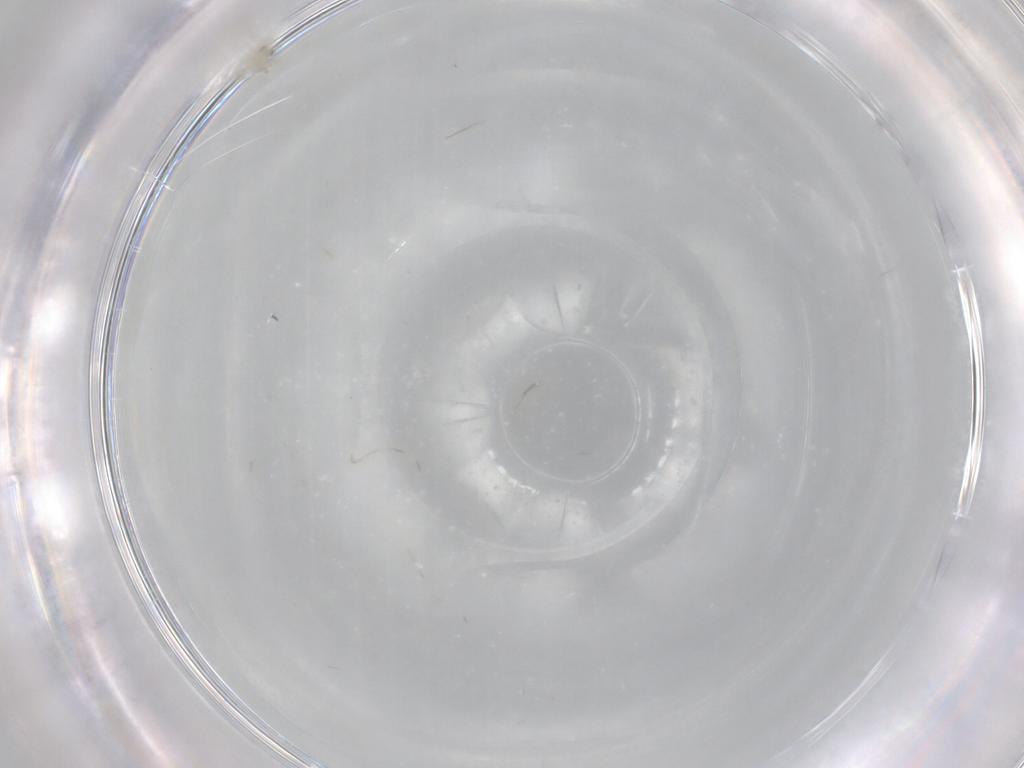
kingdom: Animalia
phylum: Arthropoda
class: Insecta
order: Hemiptera
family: Aleyrodidae
